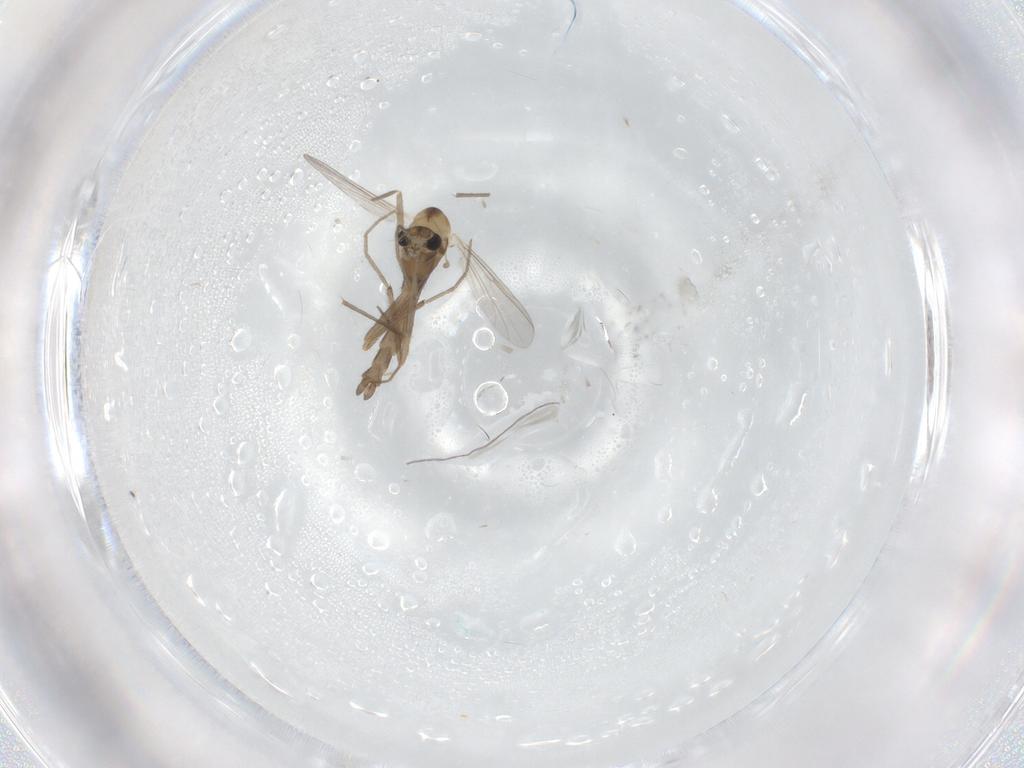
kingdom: Animalia
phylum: Arthropoda
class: Insecta
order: Diptera
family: Chironomidae
